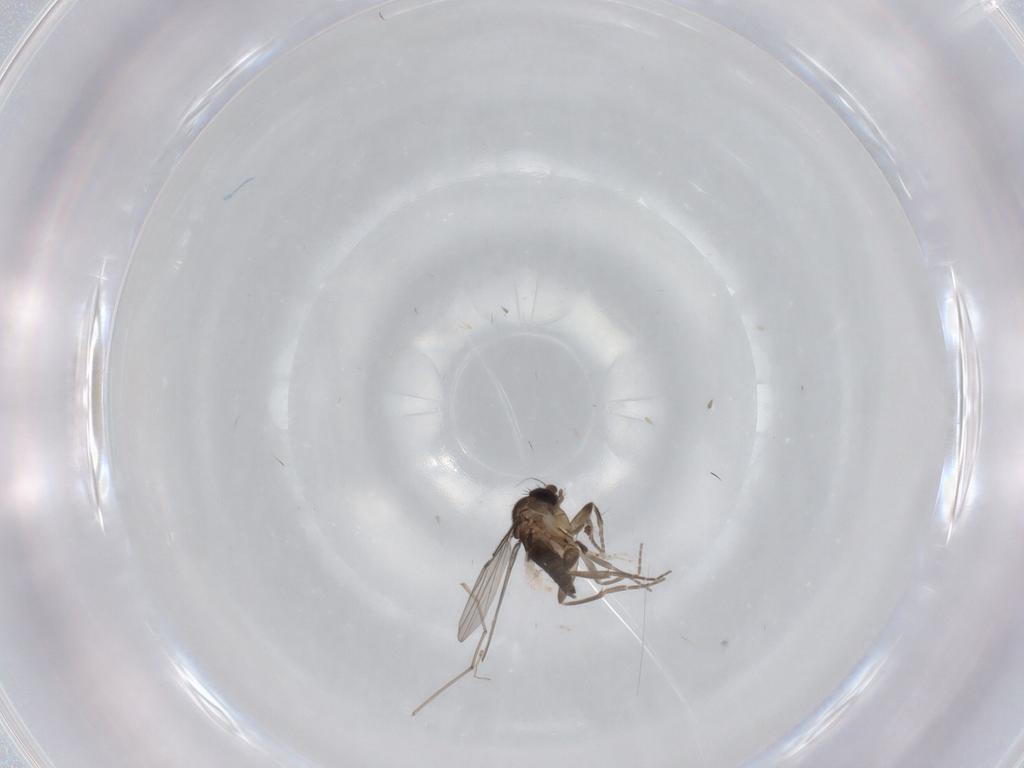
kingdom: Animalia
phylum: Arthropoda
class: Insecta
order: Diptera
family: Drosophilidae
